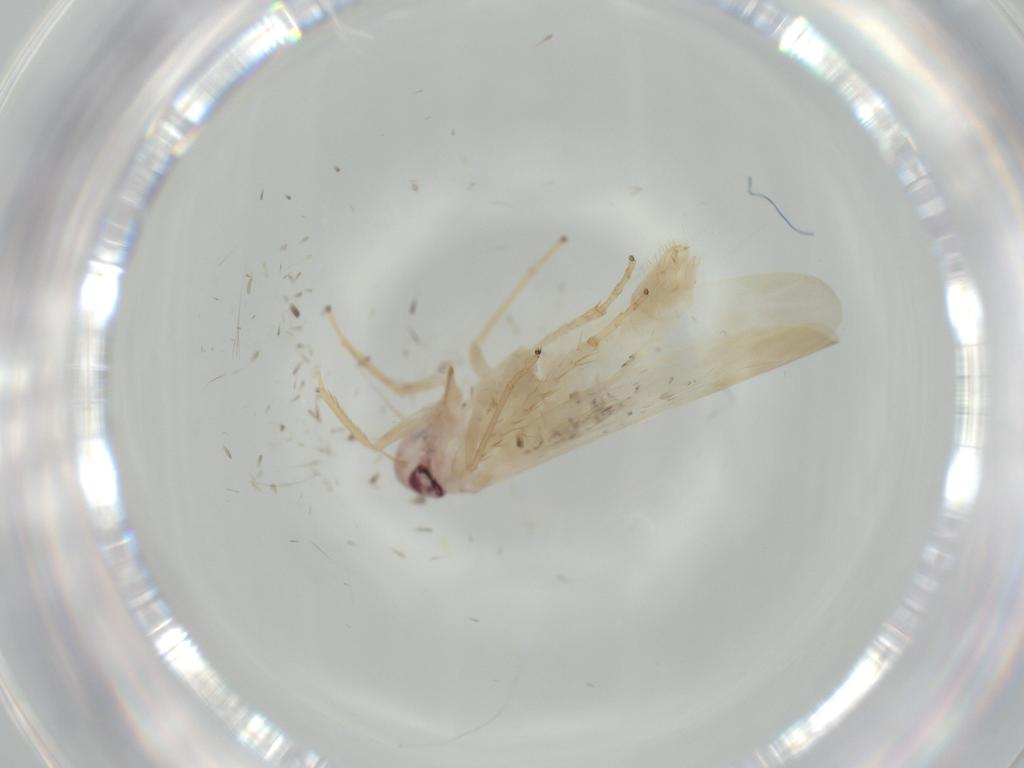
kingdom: Animalia
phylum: Arthropoda
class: Insecta
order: Hemiptera
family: Cicadellidae
